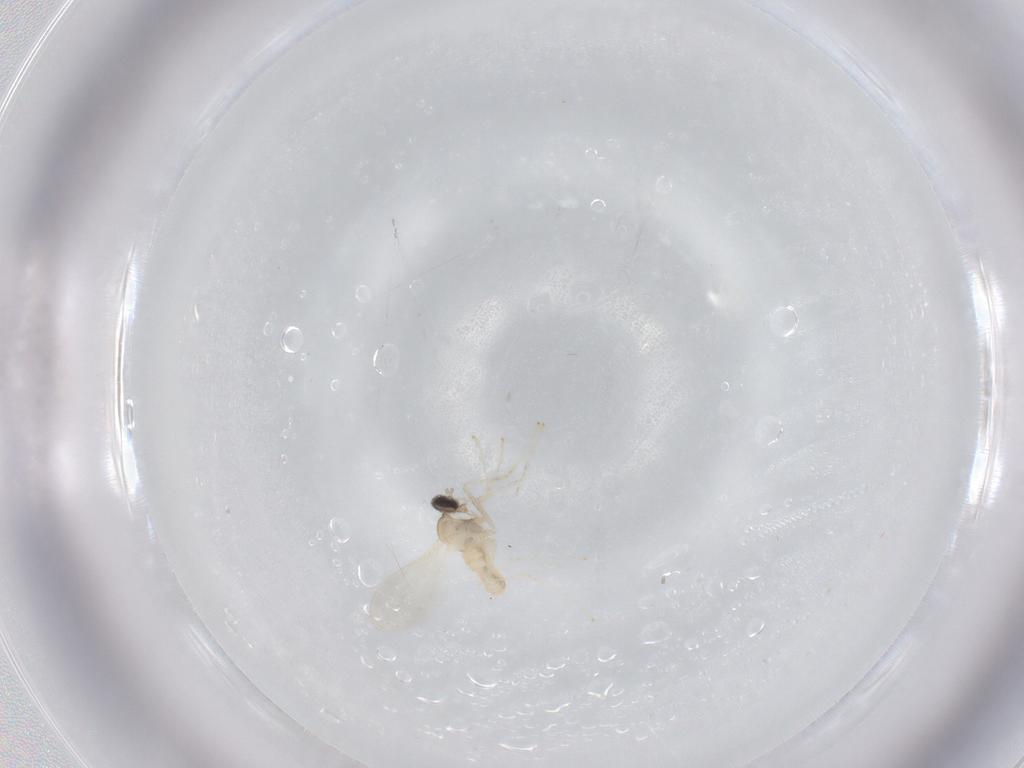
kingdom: Animalia
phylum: Arthropoda
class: Insecta
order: Diptera
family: Cecidomyiidae
